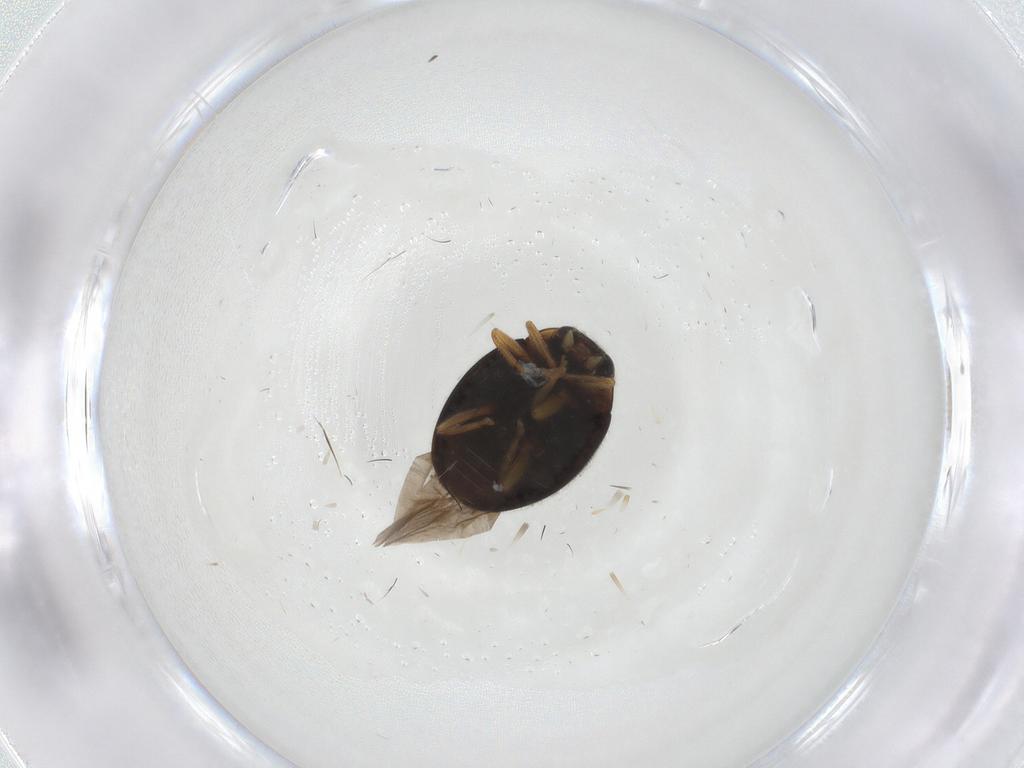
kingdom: Animalia
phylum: Arthropoda
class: Insecta
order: Coleoptera
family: Coccinellidae
